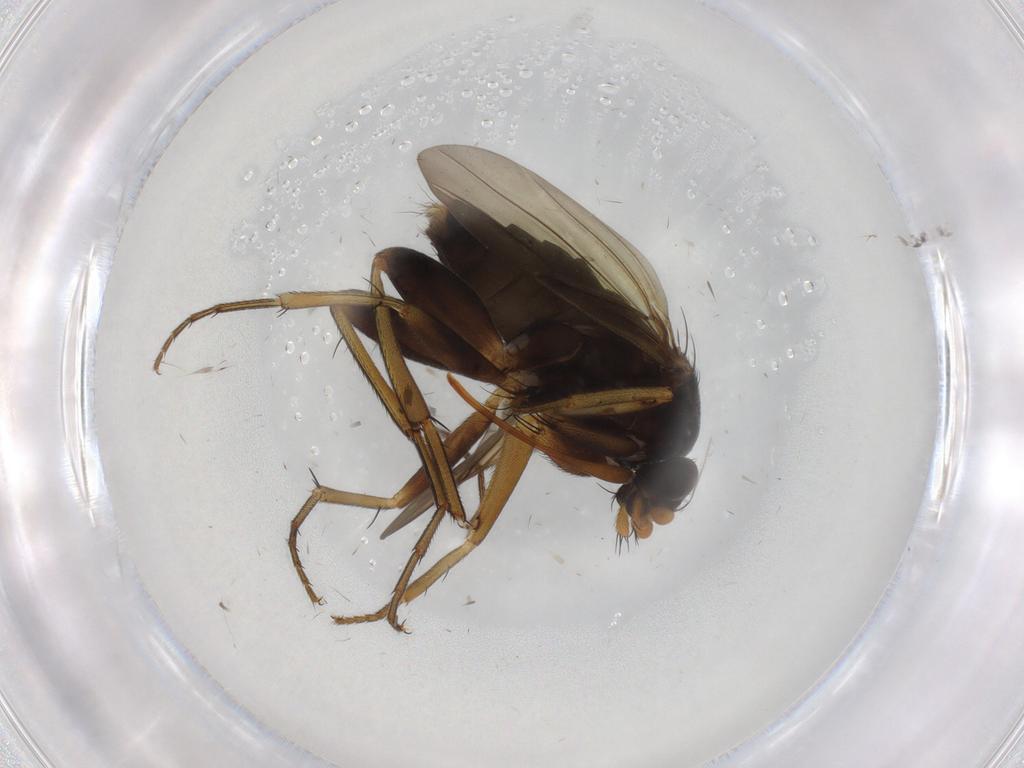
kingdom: Animalia
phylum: Arthropoda
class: Insecta
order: Diptera
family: Phoridae
